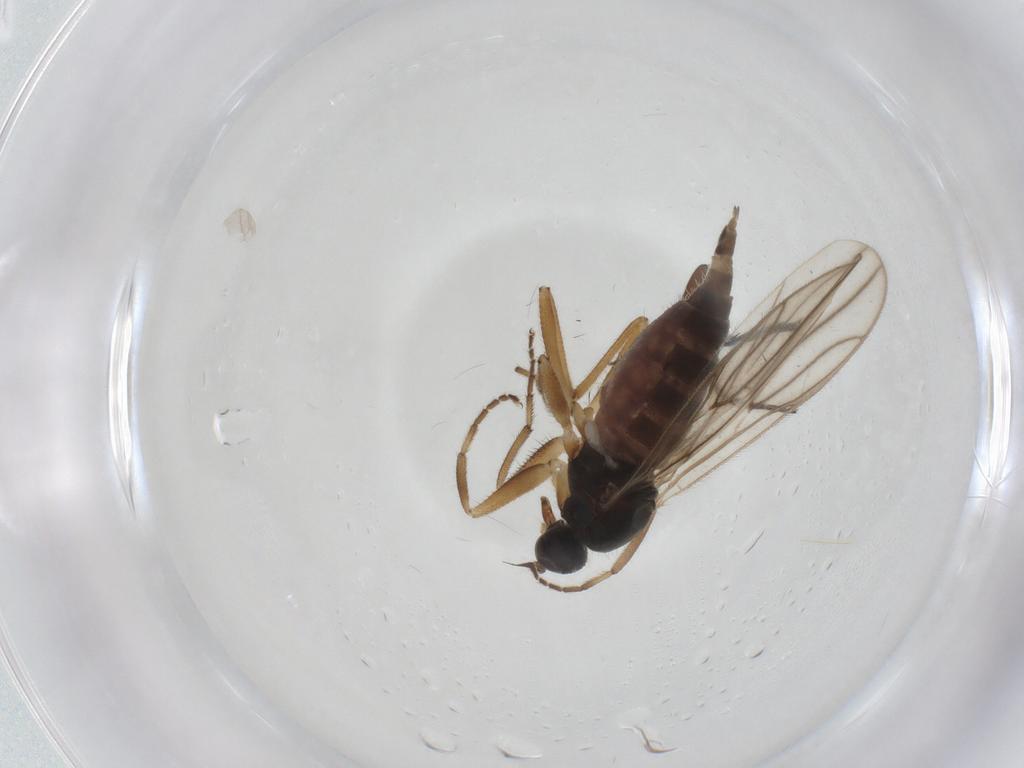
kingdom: Animalia
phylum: Arthropoda
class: Insecta
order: Diptera
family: Hybotidae
